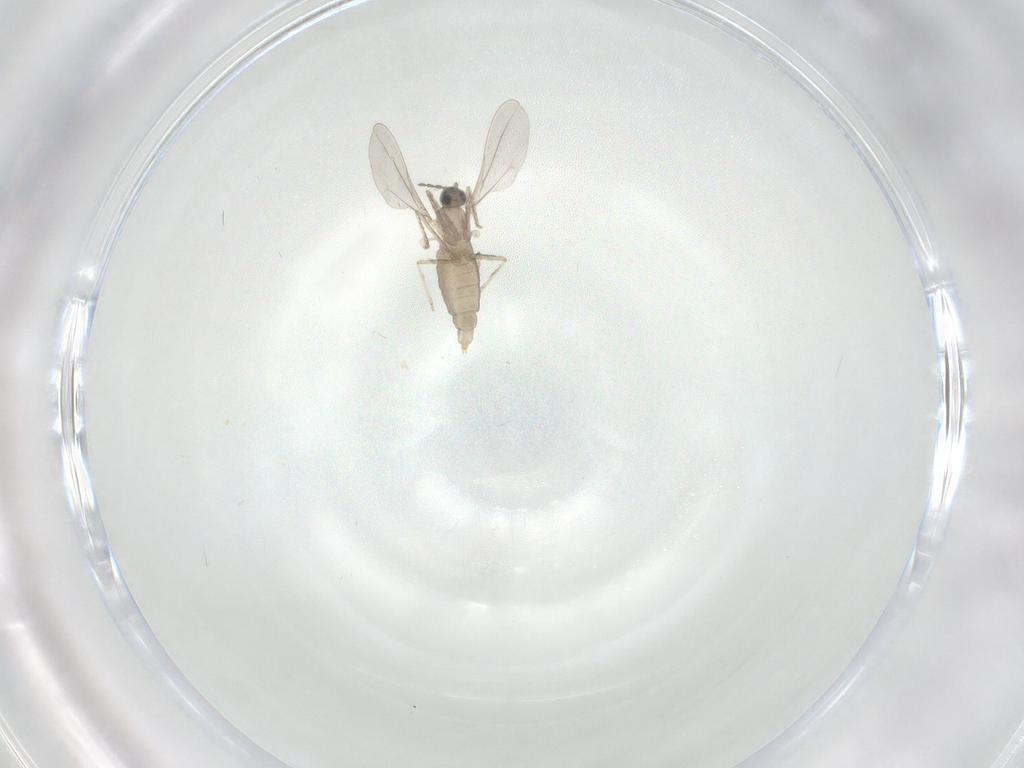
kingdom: Animalia
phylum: Arthropoda
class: Insecta
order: Diptera
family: Cecidomyiidae
